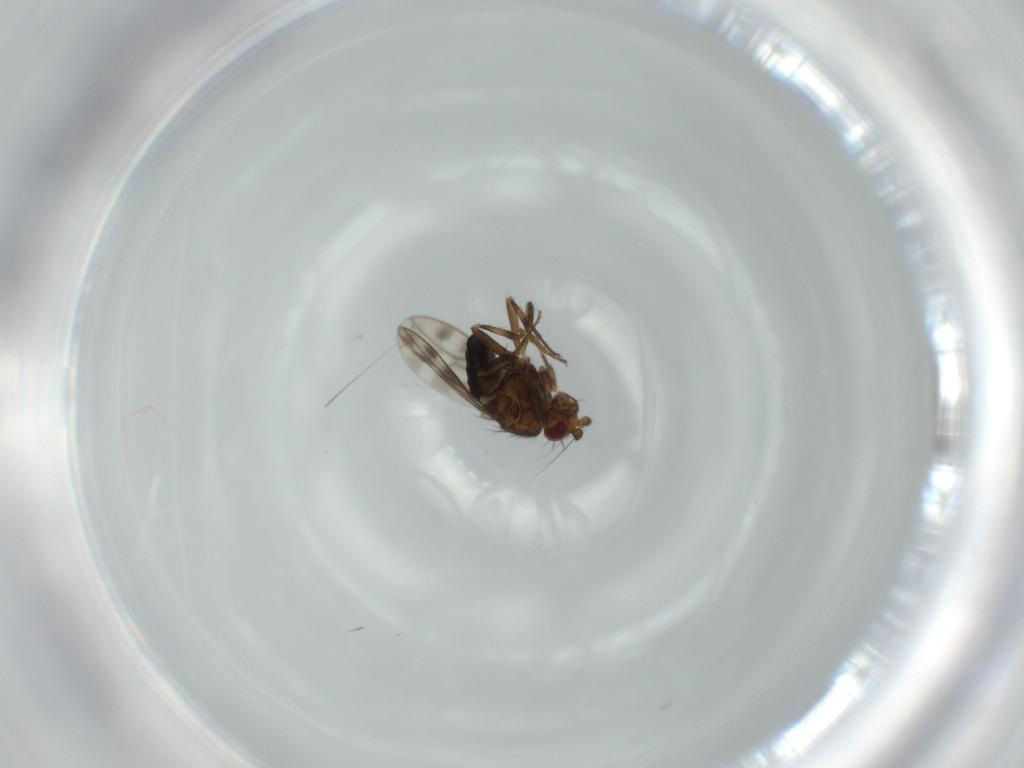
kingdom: Animalia
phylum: Arthropoda
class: Insecta
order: Diptera
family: Sphaeroceridae
